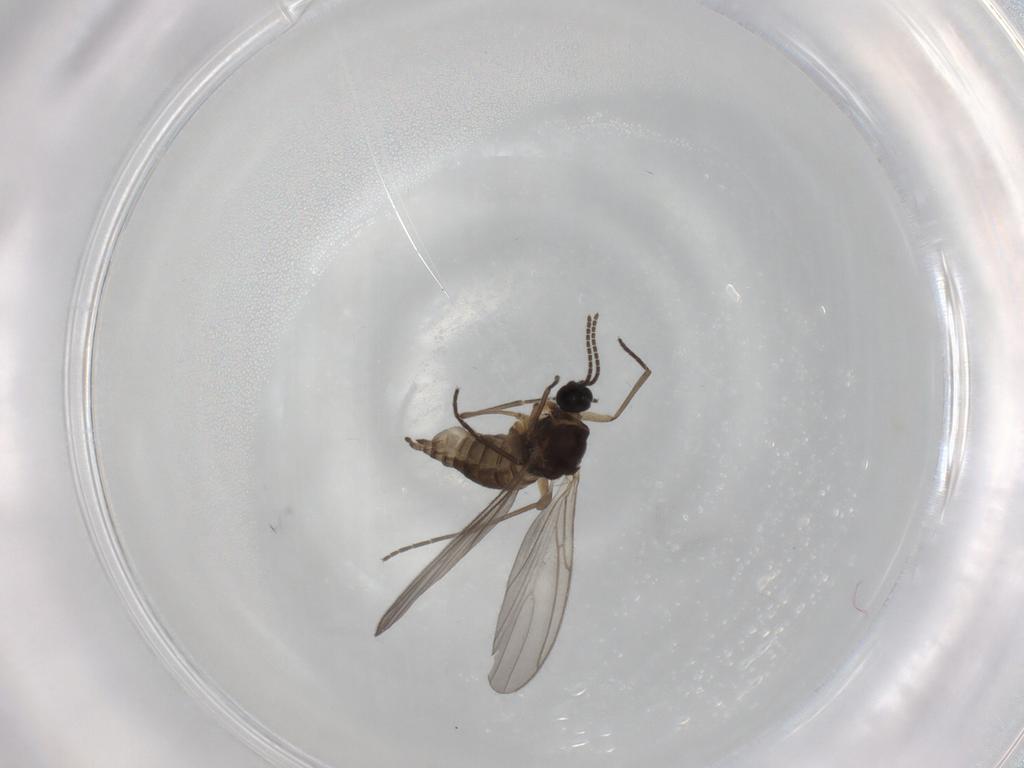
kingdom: Animalia
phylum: Arthropoda
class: Insecta
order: Diptera
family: Sciaridae
